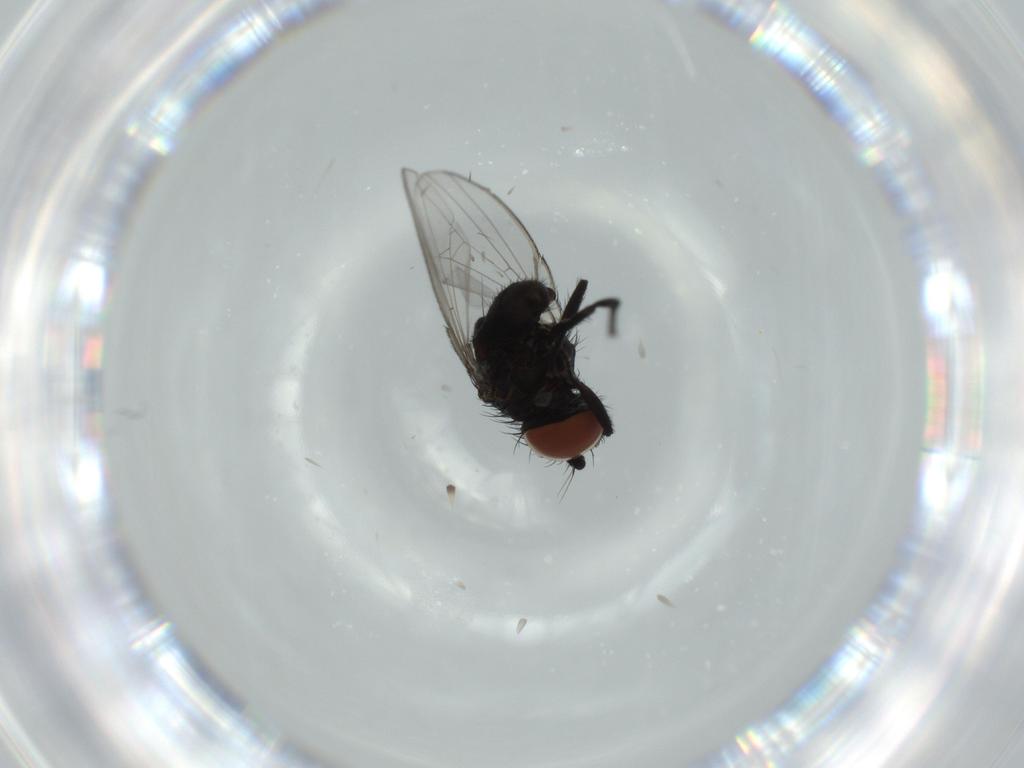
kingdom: Animalia
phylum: Arthropoda
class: Insecta
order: Diptera
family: Milichiidae
